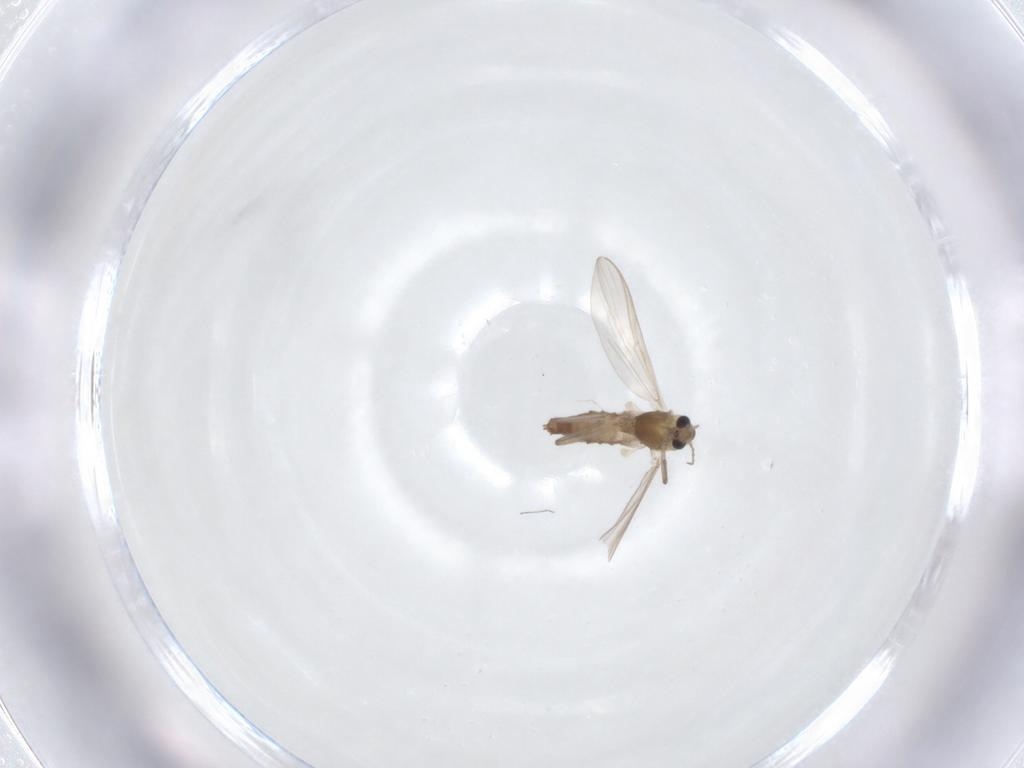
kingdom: Animalia
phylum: Arthropoda
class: Insecta
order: Diptera
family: Chironomidae
